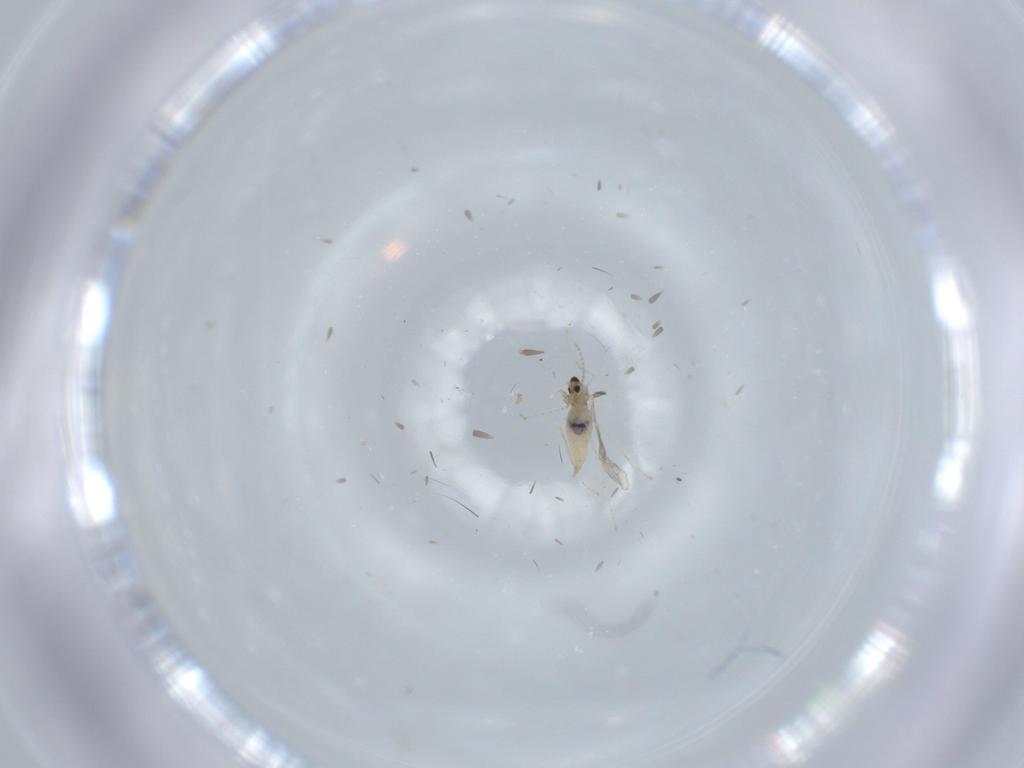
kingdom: Animalia
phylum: Arthropoda
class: Insecta
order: Diptera
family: Cecidomyiidae
